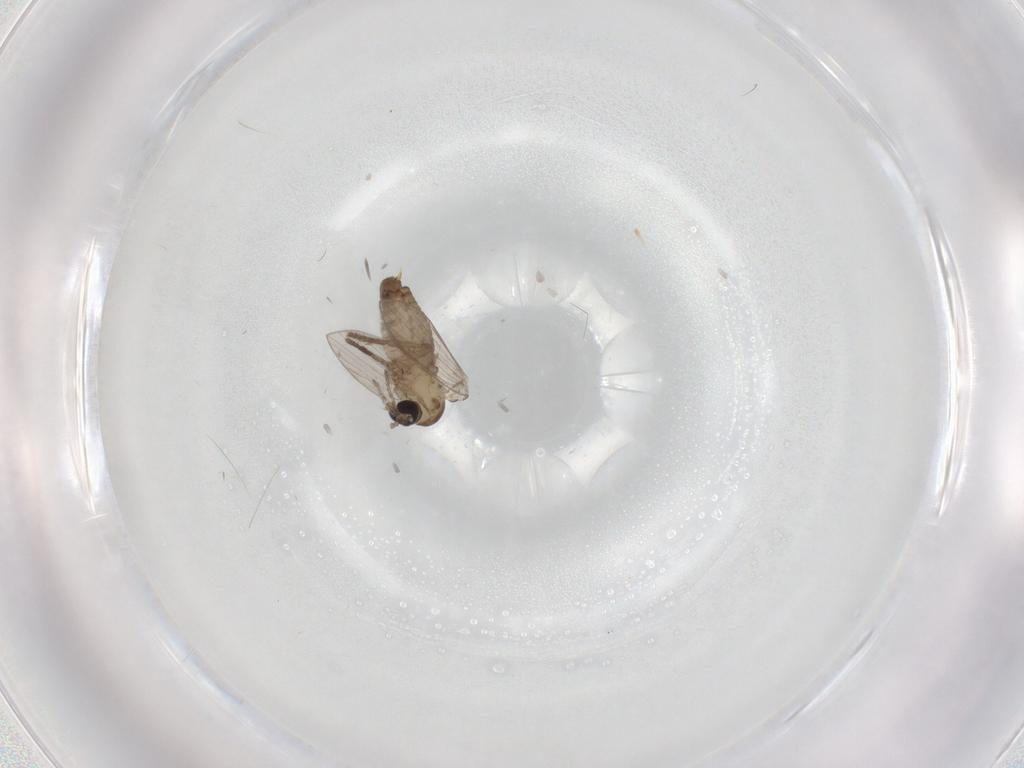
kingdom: Animalia
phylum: Arthropoda
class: Insecta
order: Diptera
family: Psychodidae
